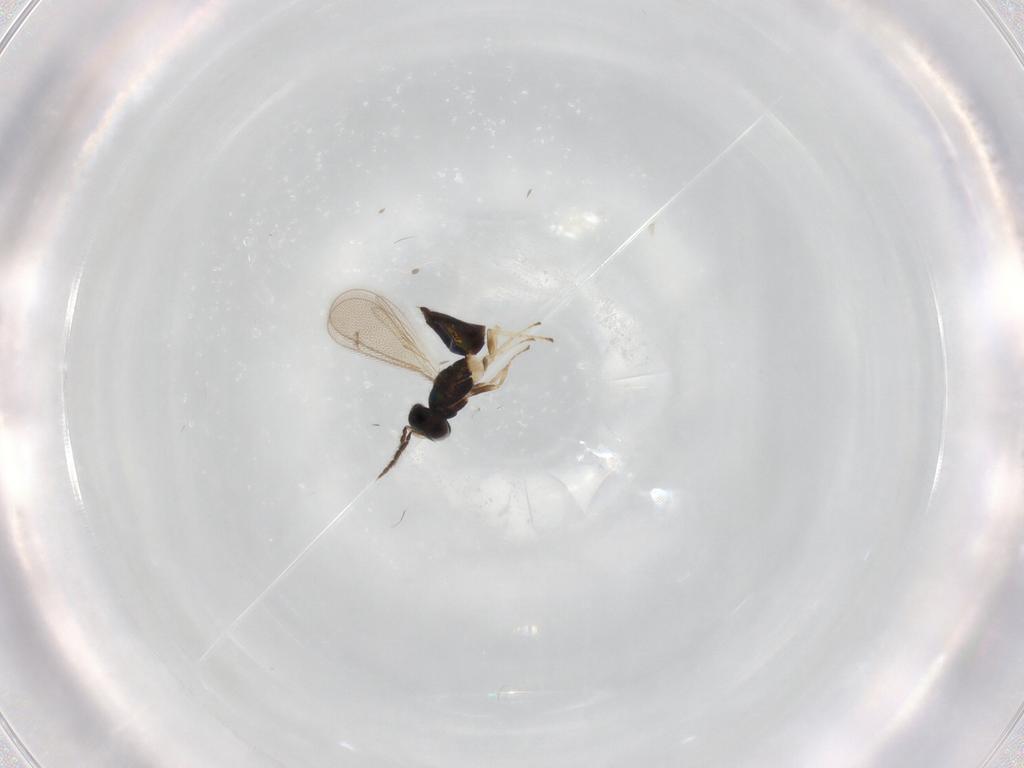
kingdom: Animalia
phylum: Arthropoda
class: Insecta
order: Hymenoptera
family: Eulophidae
